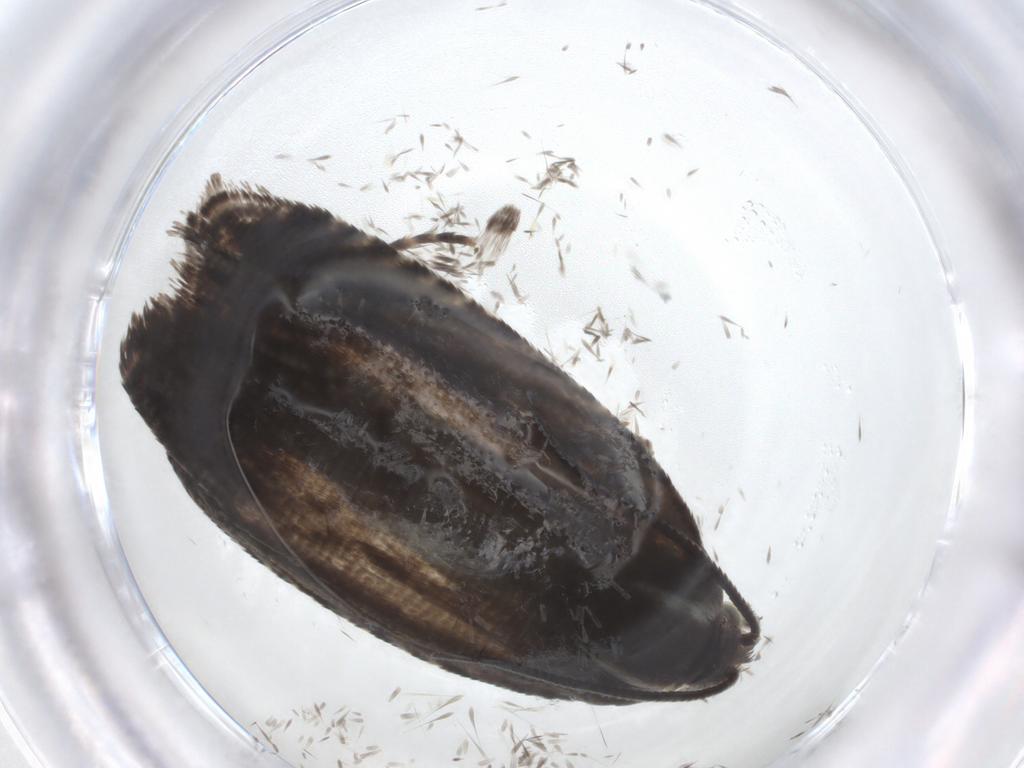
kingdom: Animalia
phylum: Arthropoda
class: Insecta
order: Lepidoptera
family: Tortricidae
